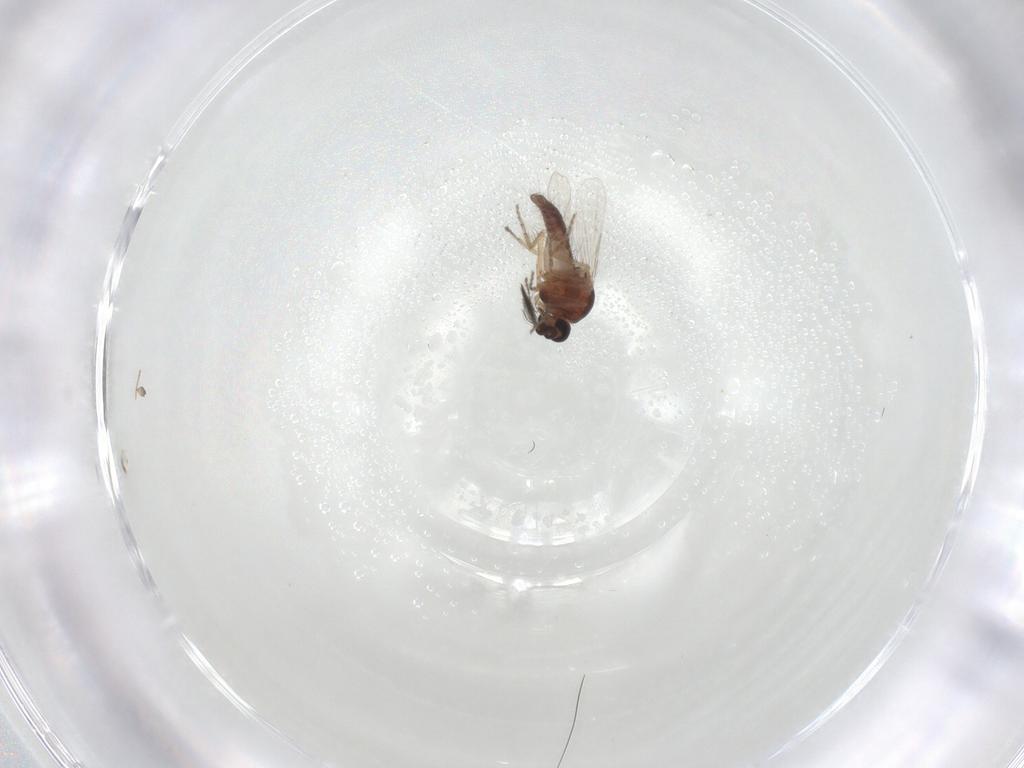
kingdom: Animalia
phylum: Arthropoda
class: Insecta
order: Diptera
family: Ceratopogonidae
